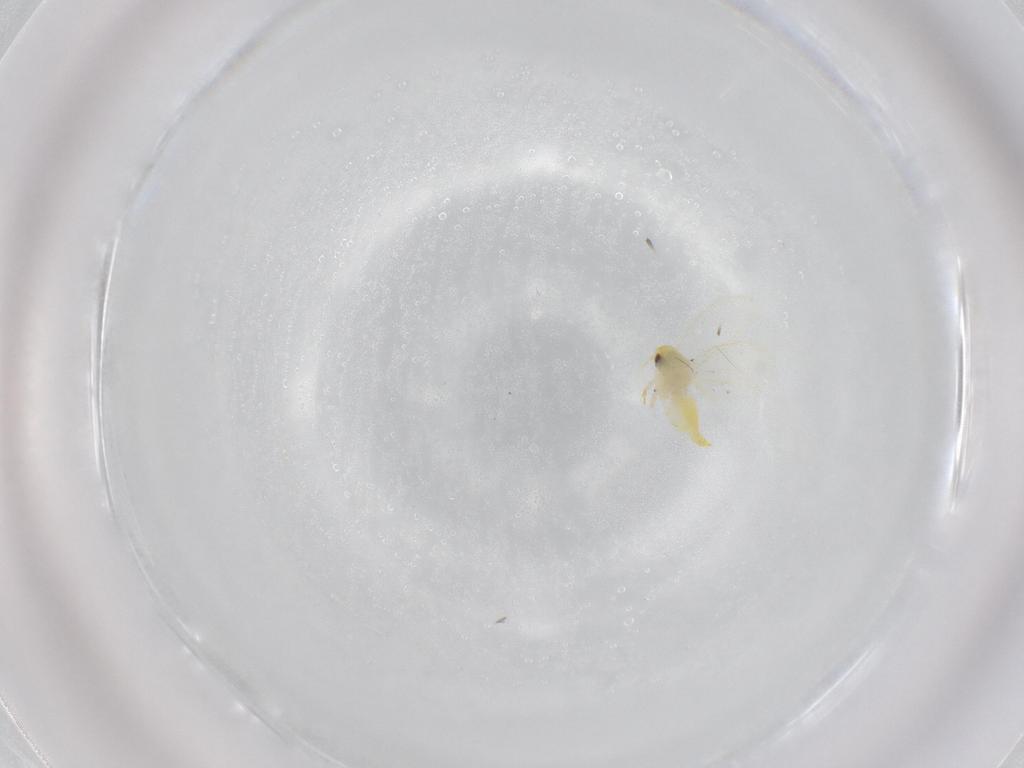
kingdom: Animalia
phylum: Arthropoda
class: Insecta
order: Hemiptera
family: Aleyrodidae
